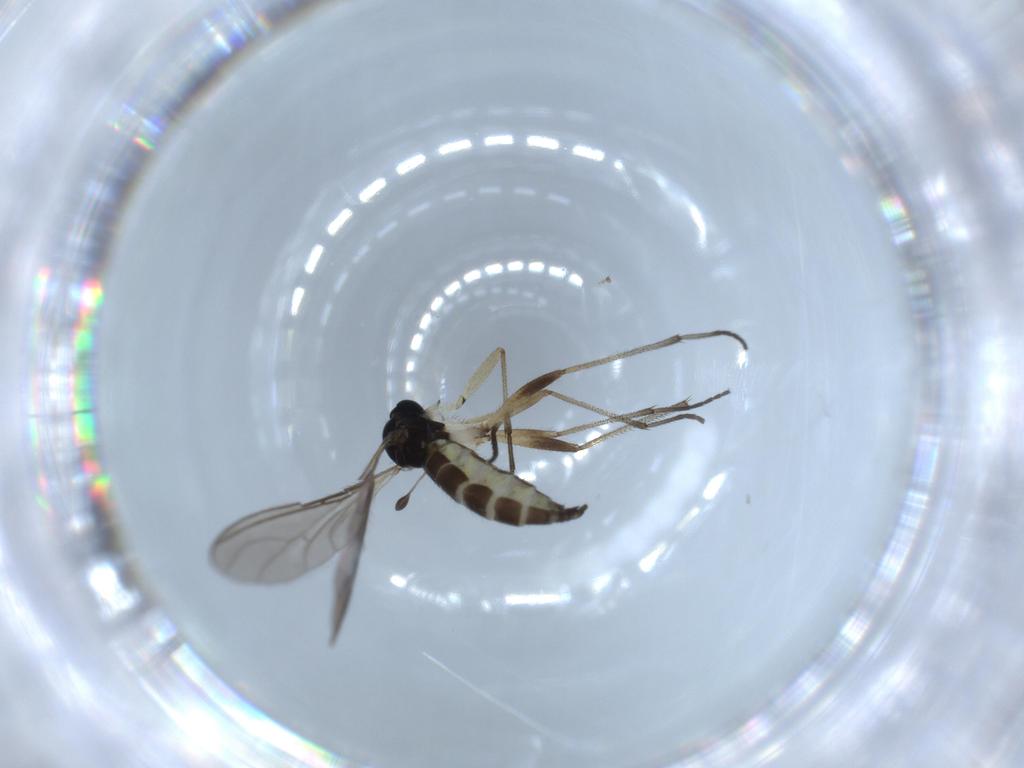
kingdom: Animalia
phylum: Arthropoda
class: Insecta
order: Diptera
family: Sciaridae
